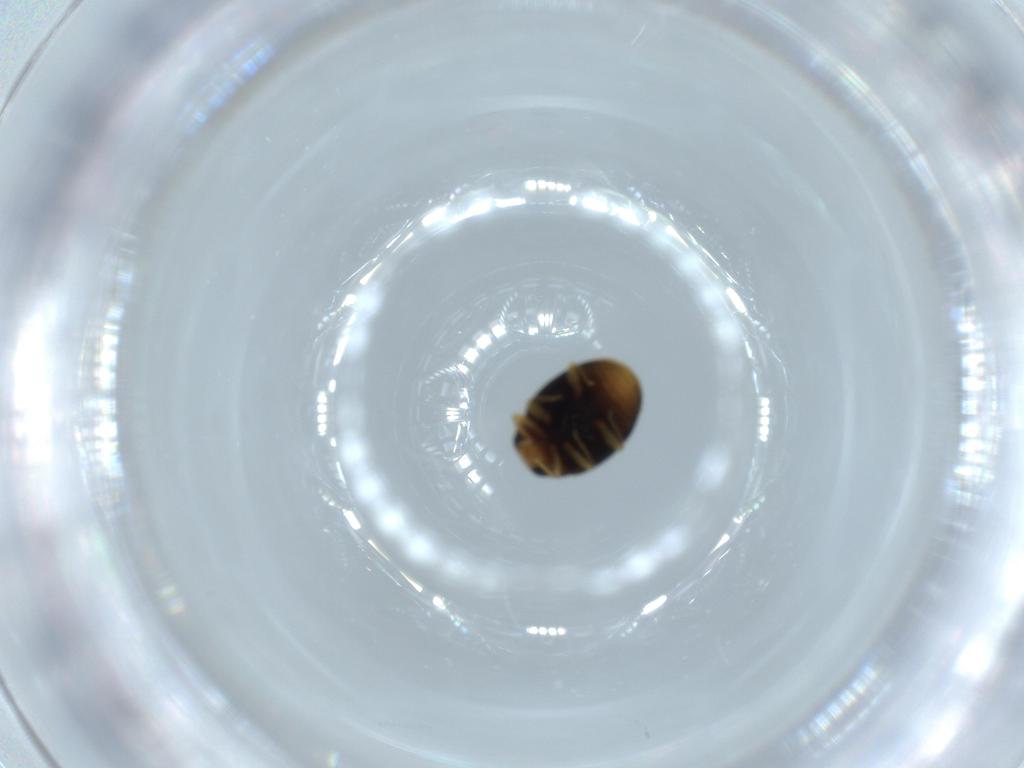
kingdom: Animalia
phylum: Arthropoda
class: Insecta
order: Coleoptera
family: Coccinellidae
